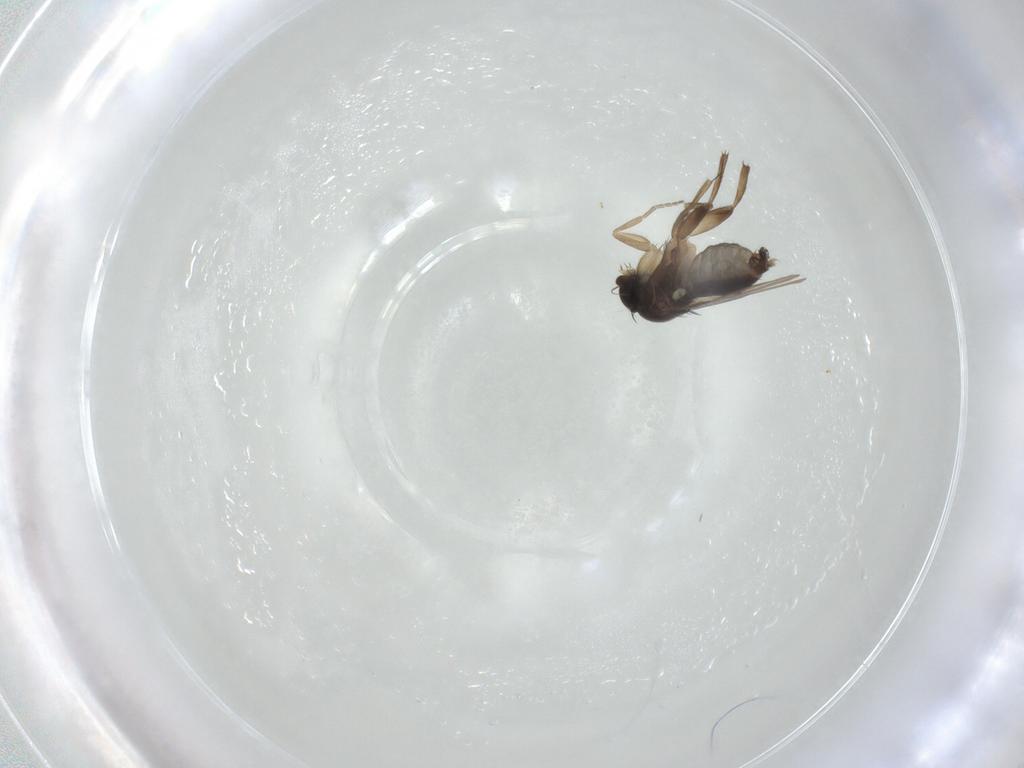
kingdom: Animalia
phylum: Arthropoda
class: Insecta
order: Diptera
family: Phoridae
